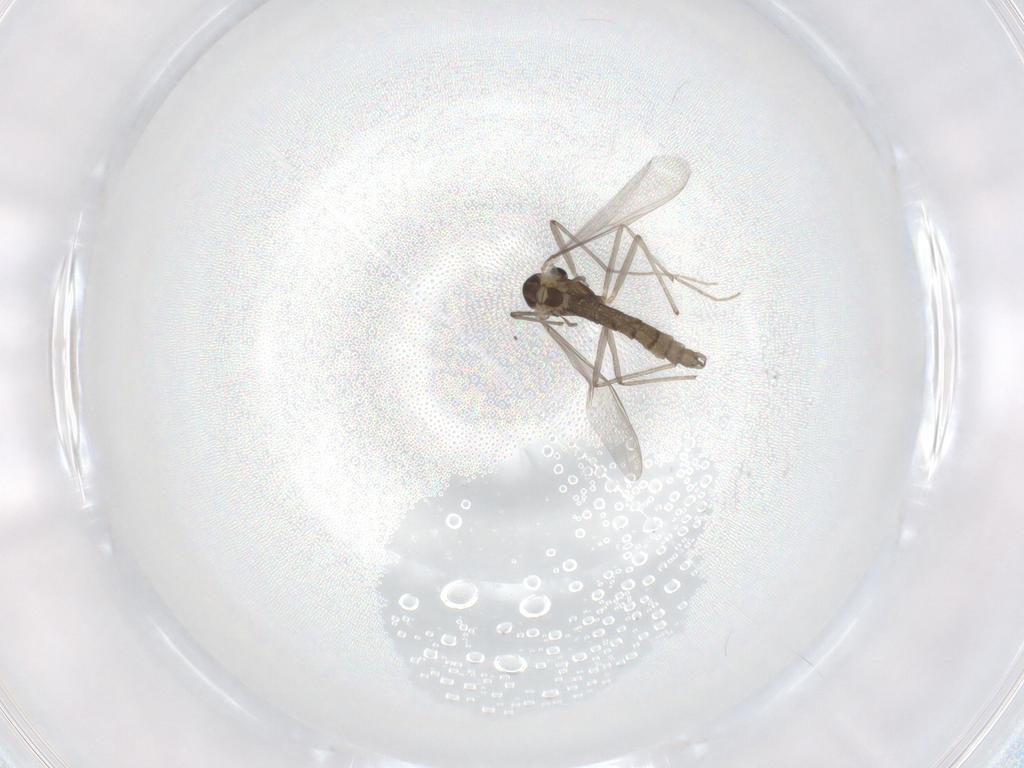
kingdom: Animalia
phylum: Arthropoda
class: Insecta
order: Diptera
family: Chironomidae
